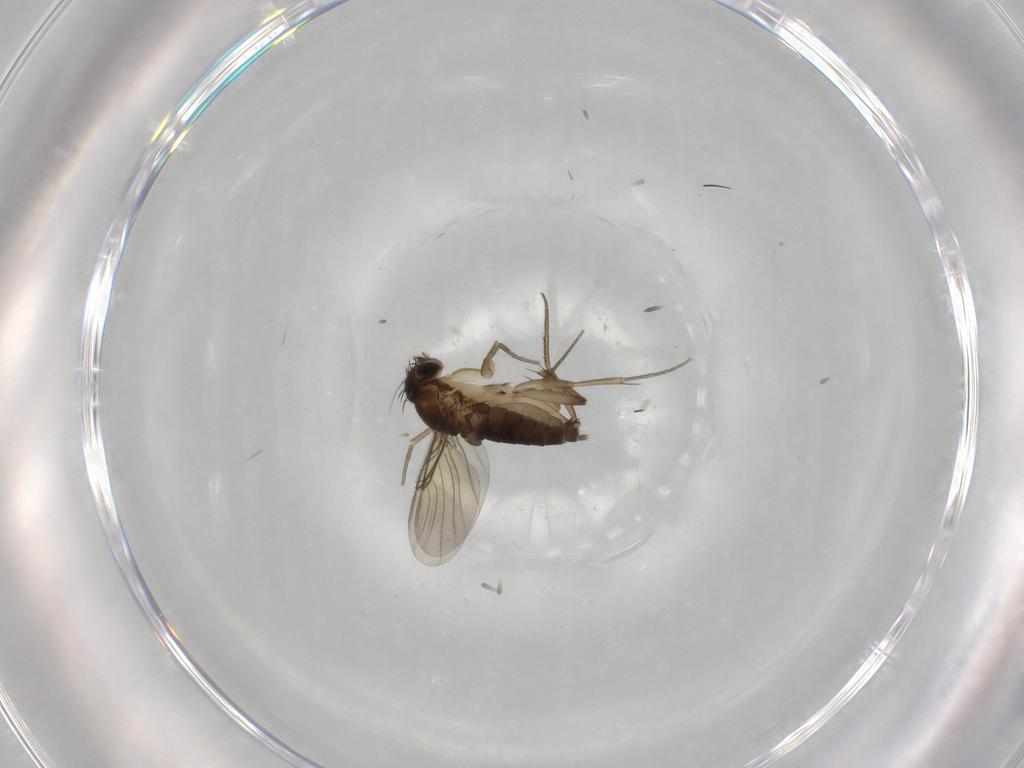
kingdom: Animalia
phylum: Arthropoda
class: Insecta
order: Diptera
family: Phoridae
